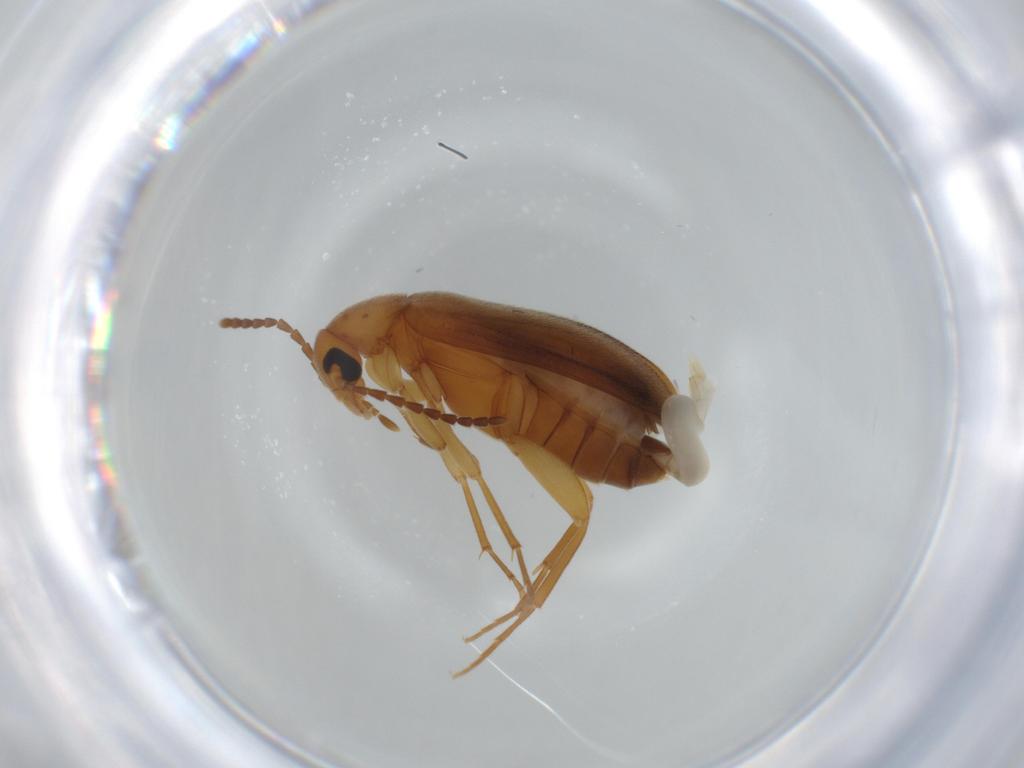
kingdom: Animalia
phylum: Arthropoda
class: Insecta
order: Coleoptera
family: Scraptiidae
